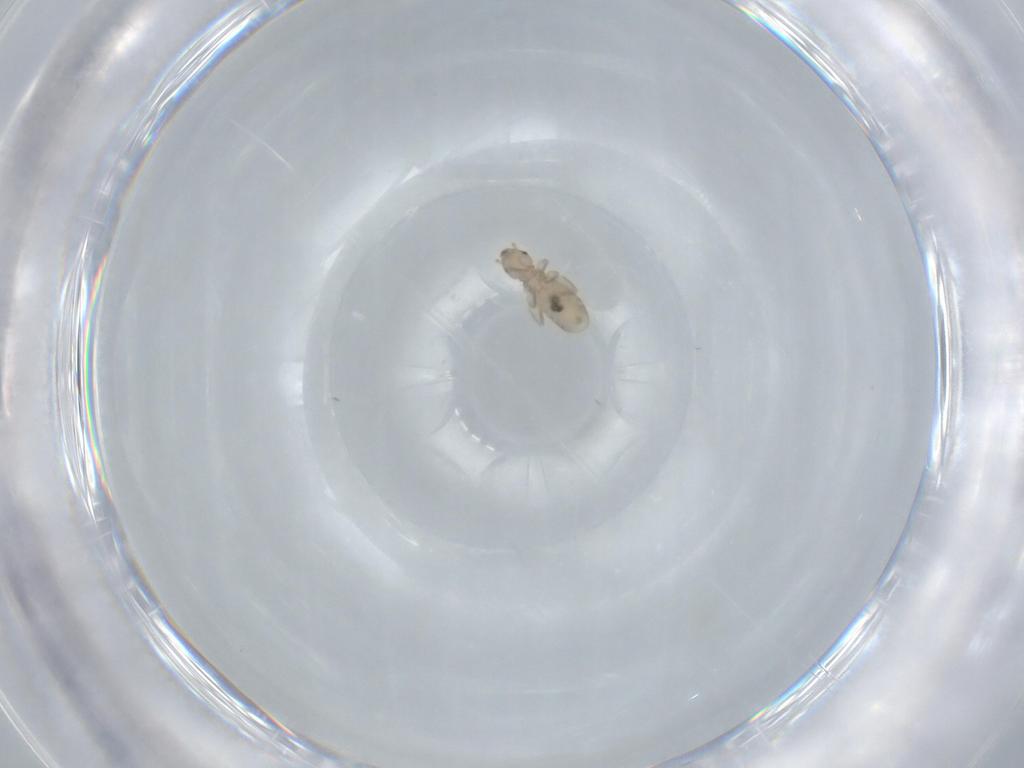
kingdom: Animalia
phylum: Arthropoda
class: Insecta
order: Psocodea
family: Liposcelididae
